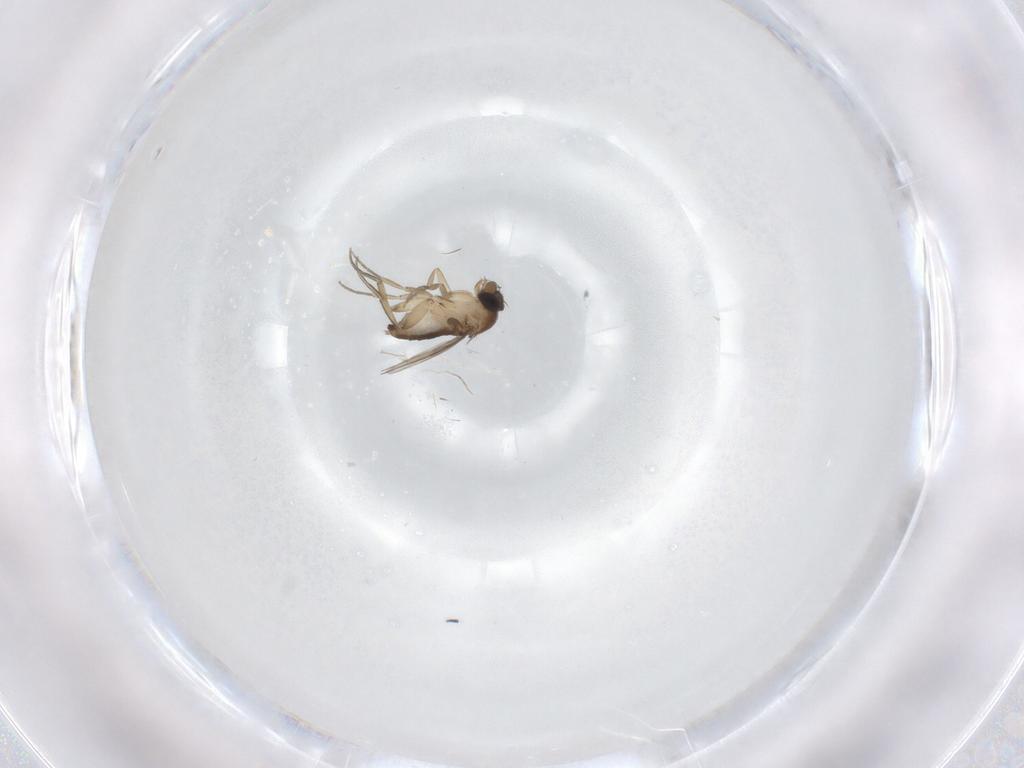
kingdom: Animalia
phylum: Arthropoda
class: Insecta
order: Diptera
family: Phoridae
